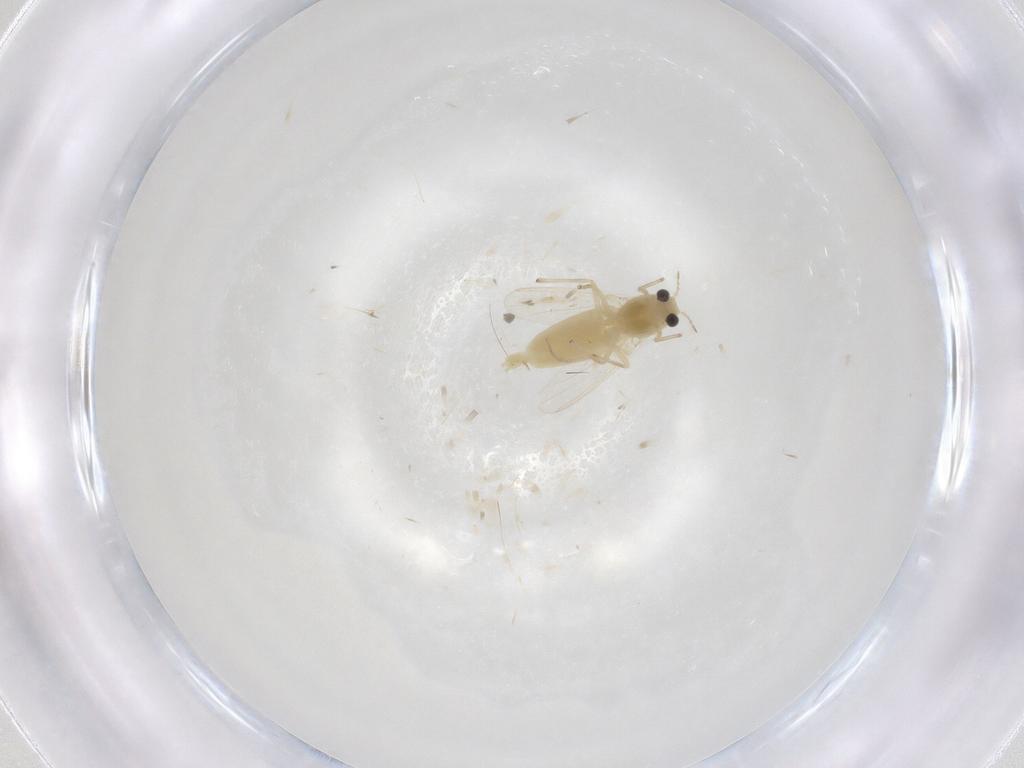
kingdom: Animalia
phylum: Arthropoda
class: Insecta
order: Diptera
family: Chironomidae
